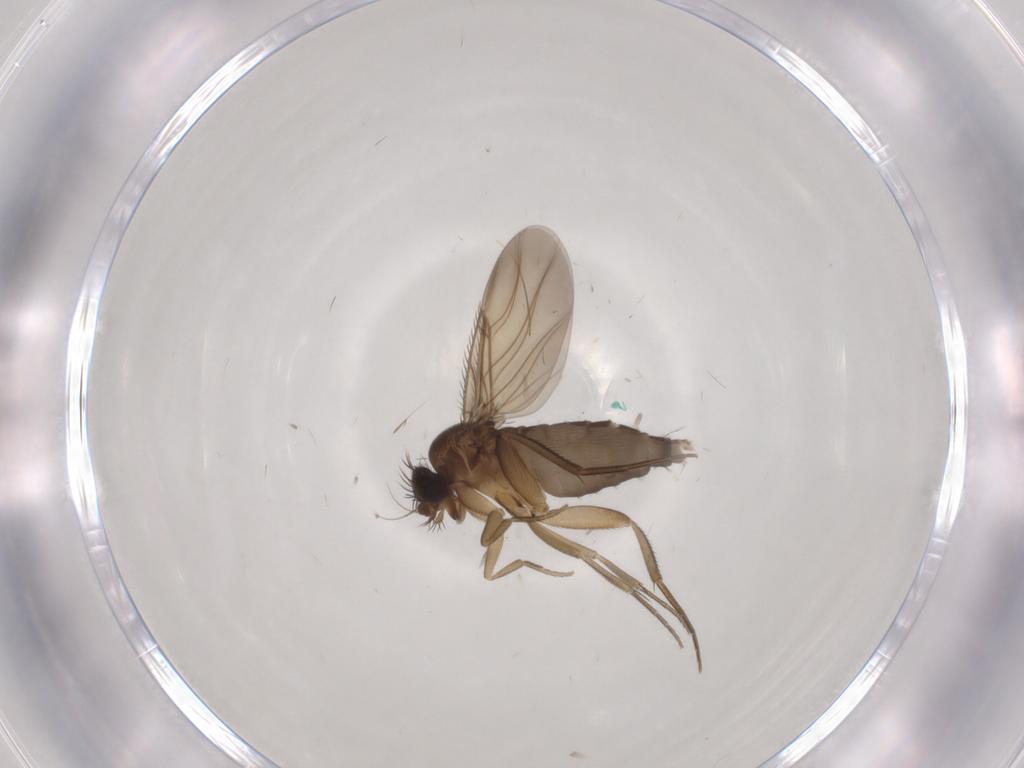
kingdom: Animalia
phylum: Arthropoda
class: Insecta
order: Diptera
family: Phoridae
